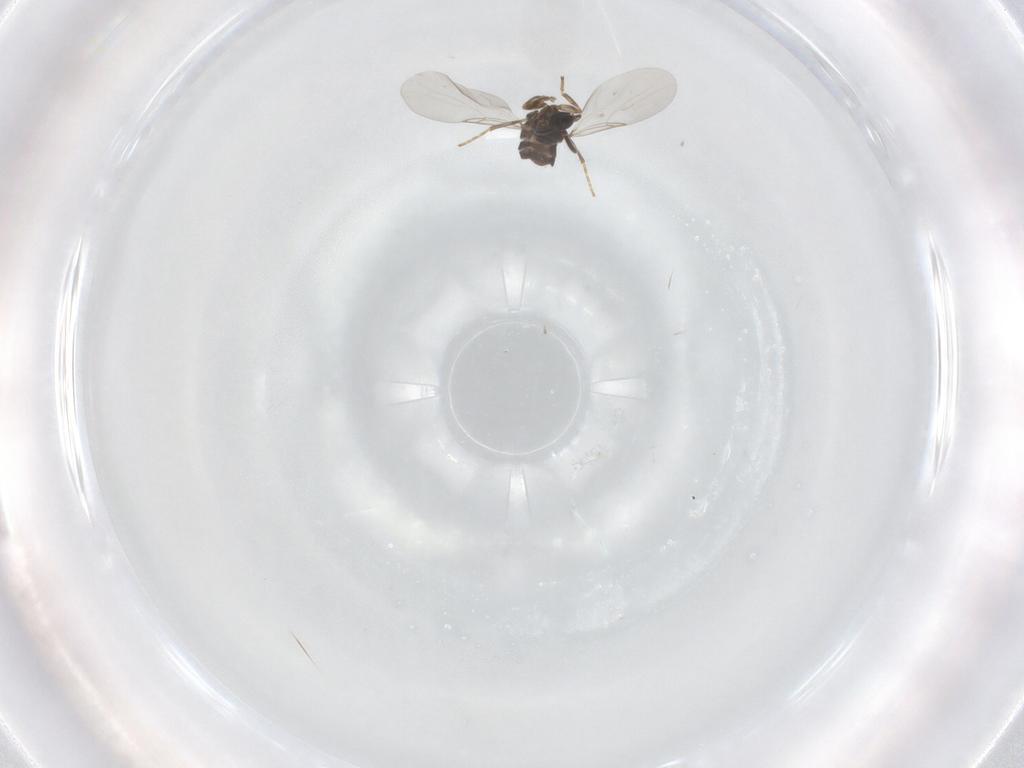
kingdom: Animalia
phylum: Arthropoda
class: Insecta
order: Diptera
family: Scatopsidae
